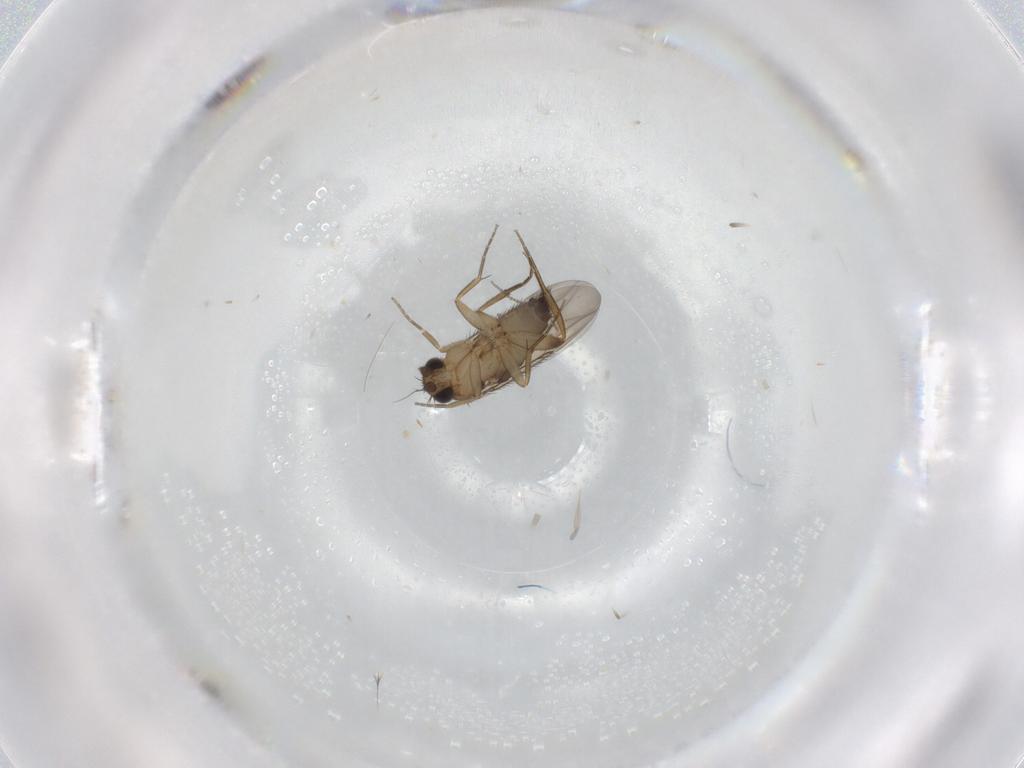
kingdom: Animalia
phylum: Arthropoda
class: Insecta
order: Diptera
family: Phoridae
